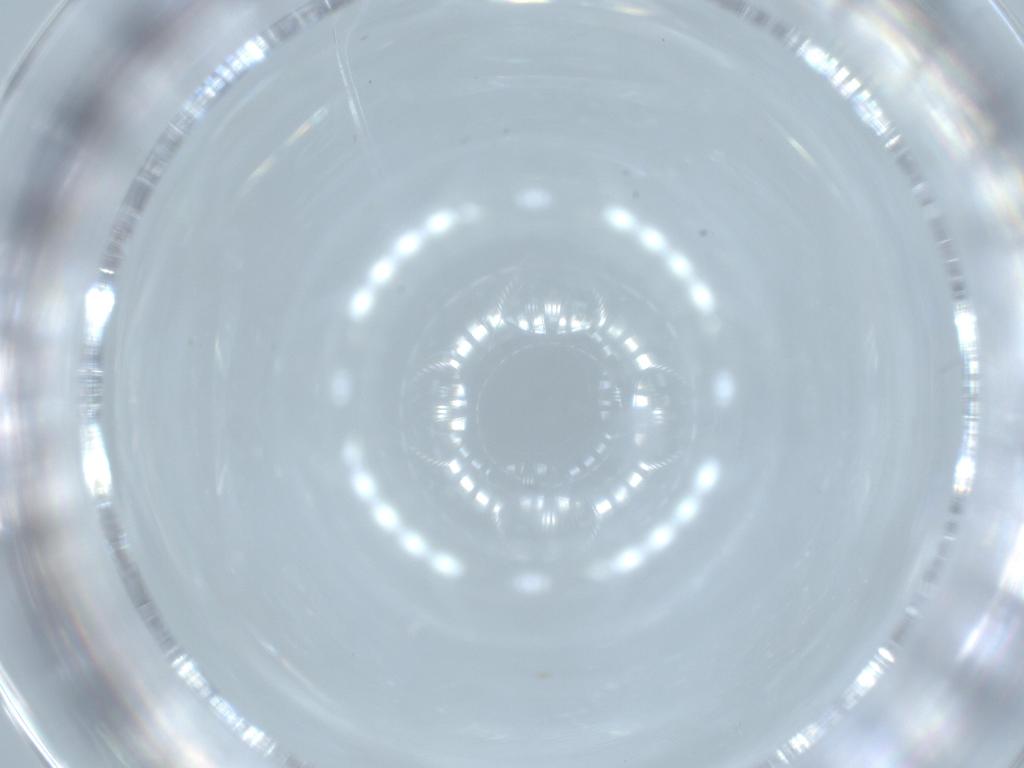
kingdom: Animalia
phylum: Arthropoda
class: Insecta
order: Diptera
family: Cecidomyiidae
